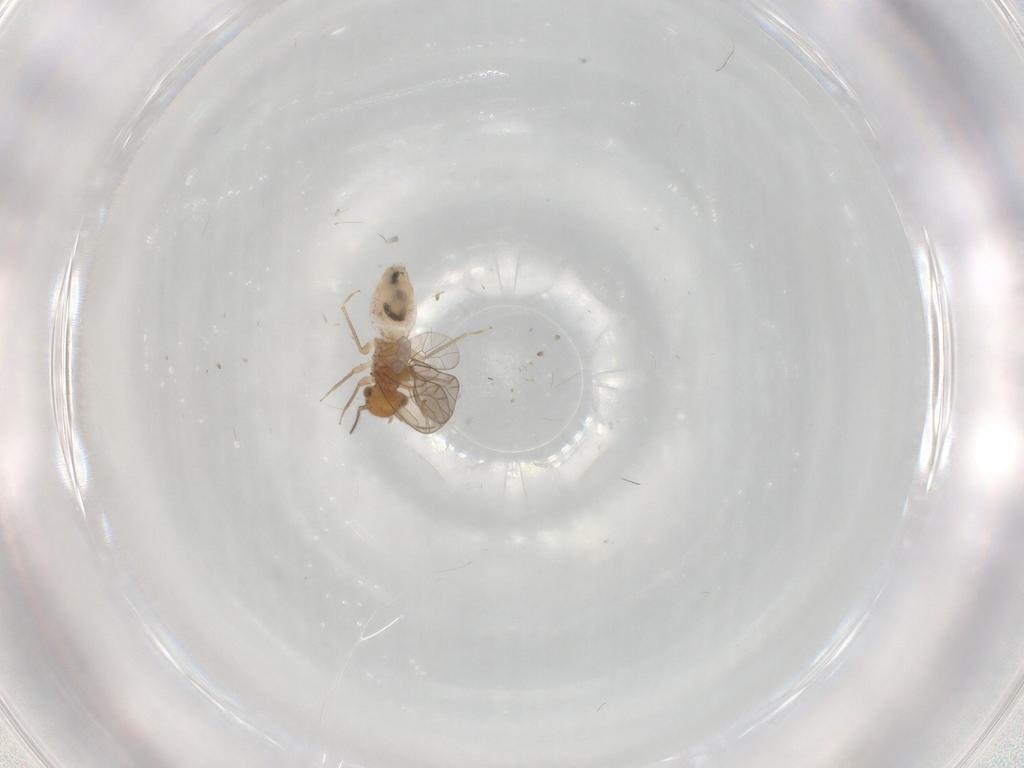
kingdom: Animalia
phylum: Arthropoda
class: Insecta
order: Psocodea
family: Ectopsocidae
